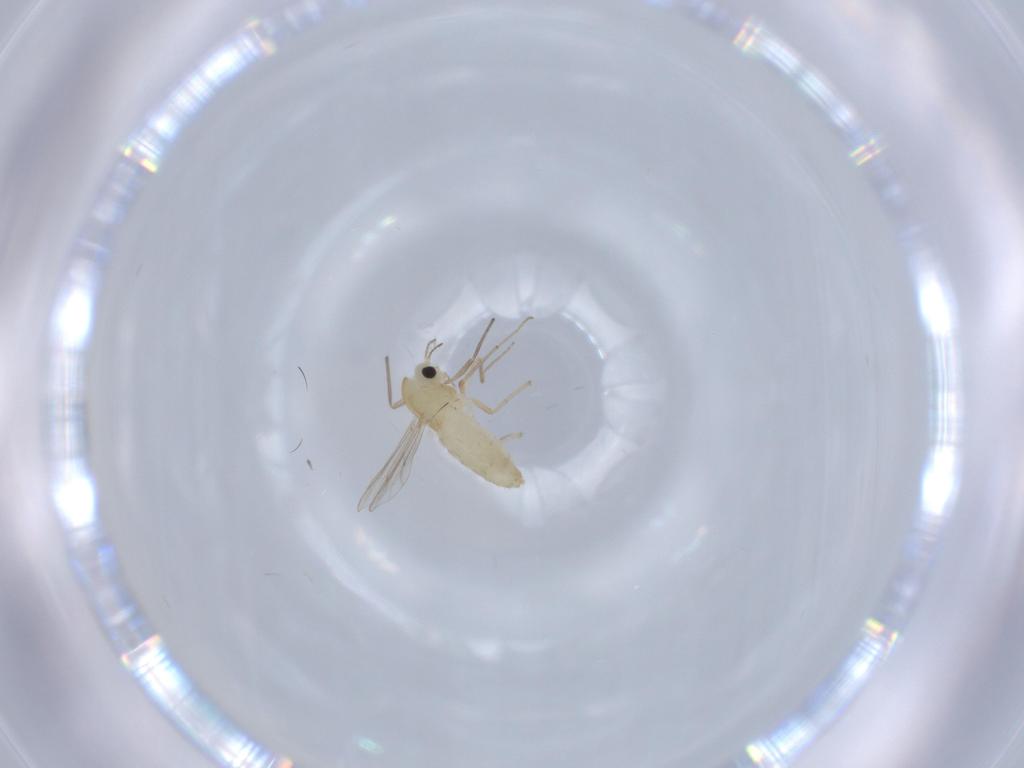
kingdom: Animalia
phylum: Arthropoda
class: Insecta
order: Diptera
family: Chironomidae
